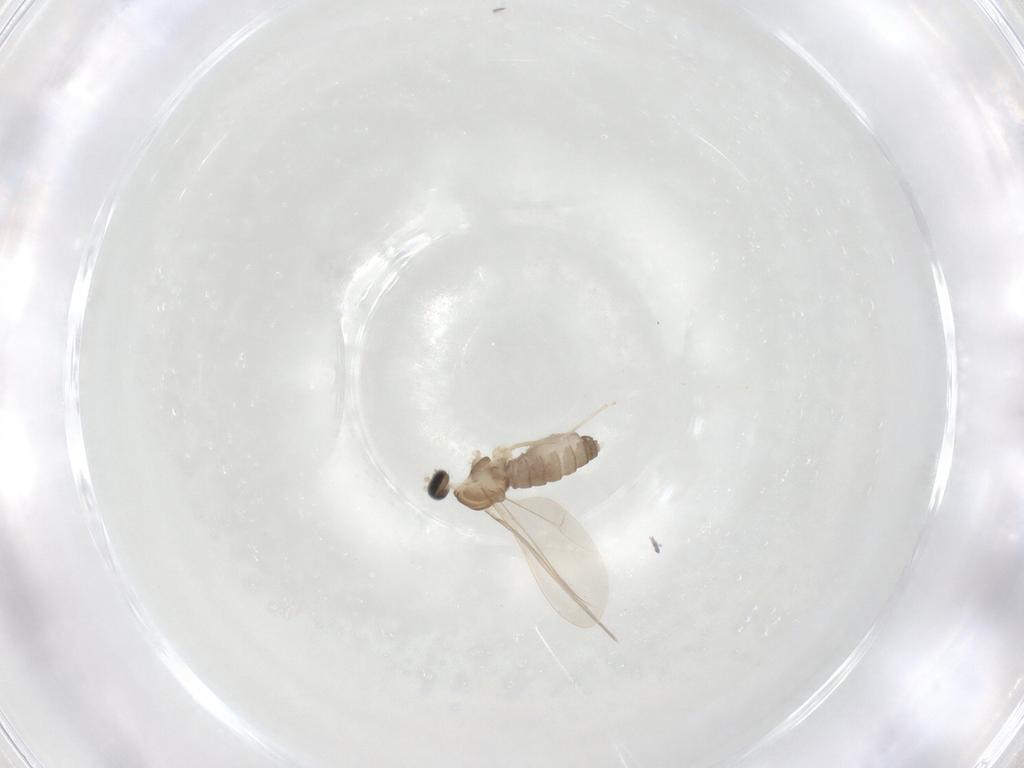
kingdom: Animalia
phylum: Arthropoda
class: Insecta
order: Diptera
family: Cecidomyiidae
